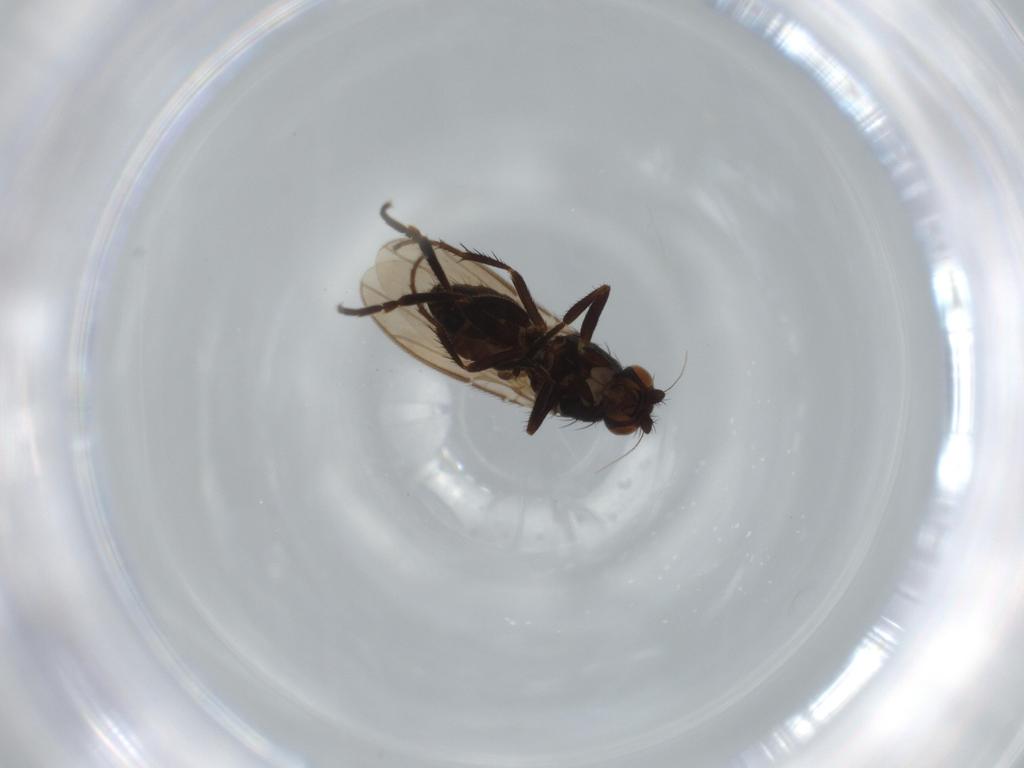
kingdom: Animalia
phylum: Arthropoda
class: Insecta
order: Diptera
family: Sphaeroceridae
